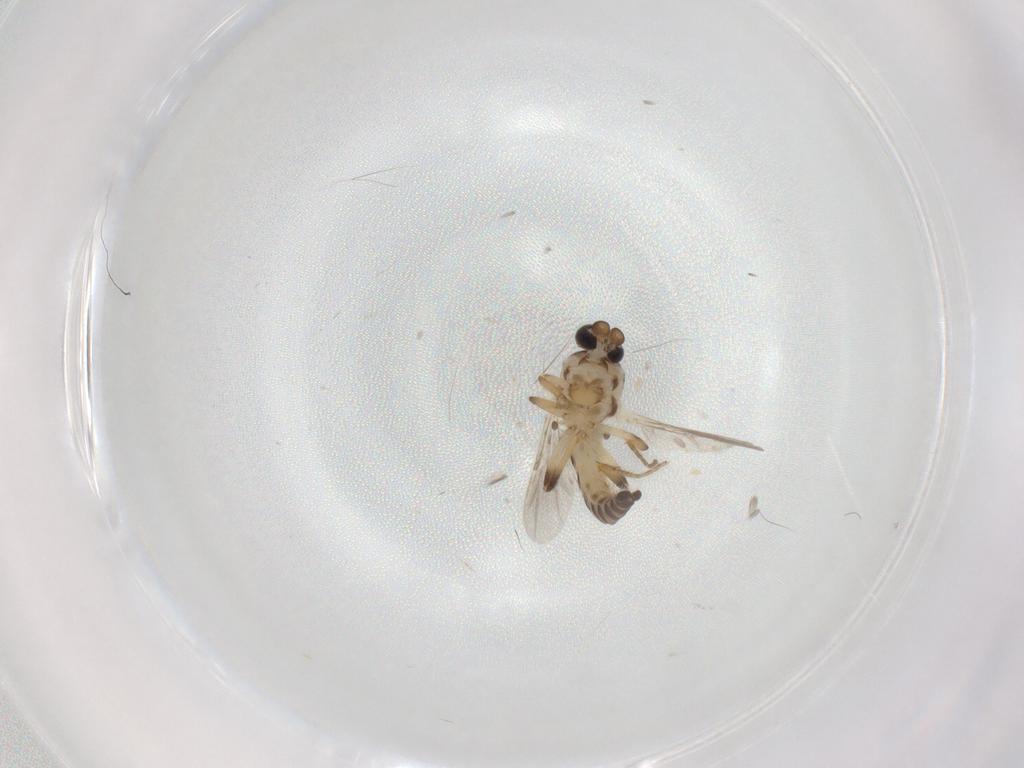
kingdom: Animalia
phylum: Arthropoda
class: Insecta
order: Diptera
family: Ceratopogonidae
